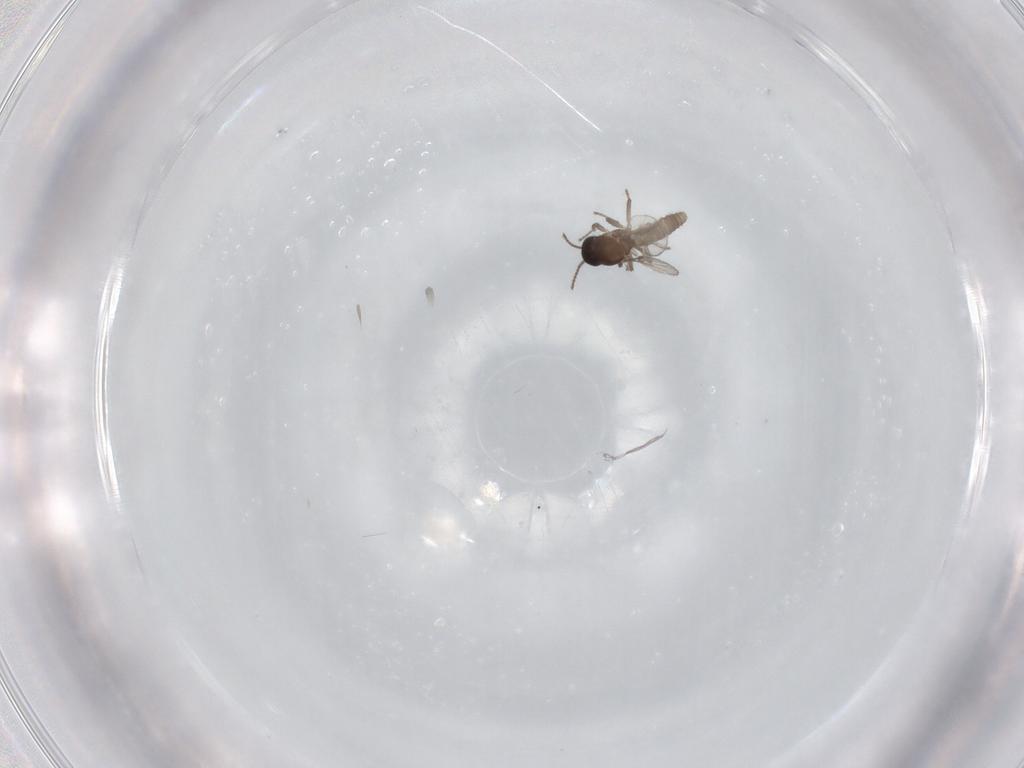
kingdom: Animalia
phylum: Arthropoda
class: Insecta
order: Diptera
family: Ceratopogonidae
